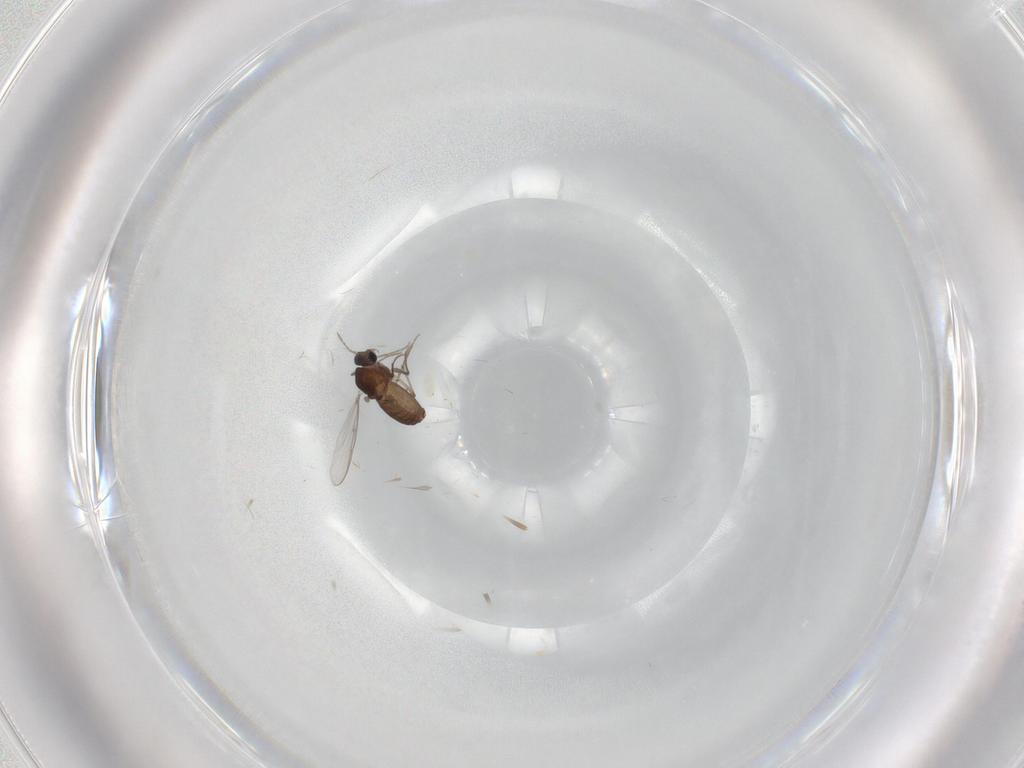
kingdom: Animalia
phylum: Arthropoda
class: Insecta
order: Diptera
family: Chironomidae
